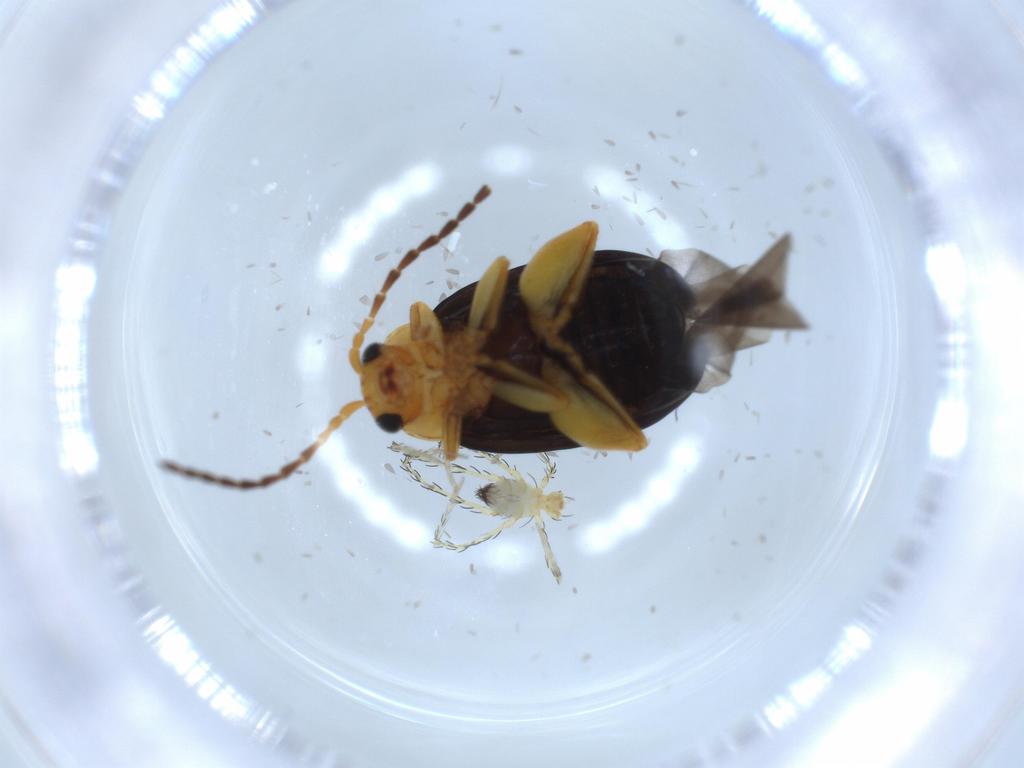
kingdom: Animalia
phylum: Arthropoda
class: Insecta
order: Coleoptera
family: Chrysomelidae
